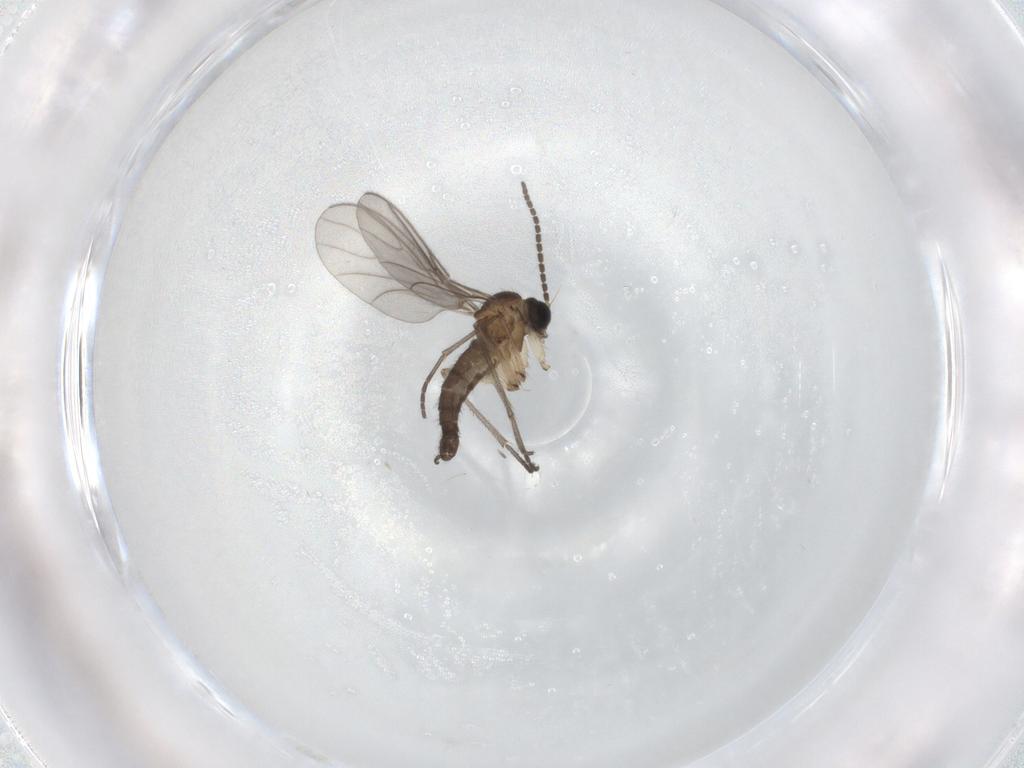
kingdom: Animalia
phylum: Arthropoda
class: Insecta
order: Diptera
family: Sciaridae
